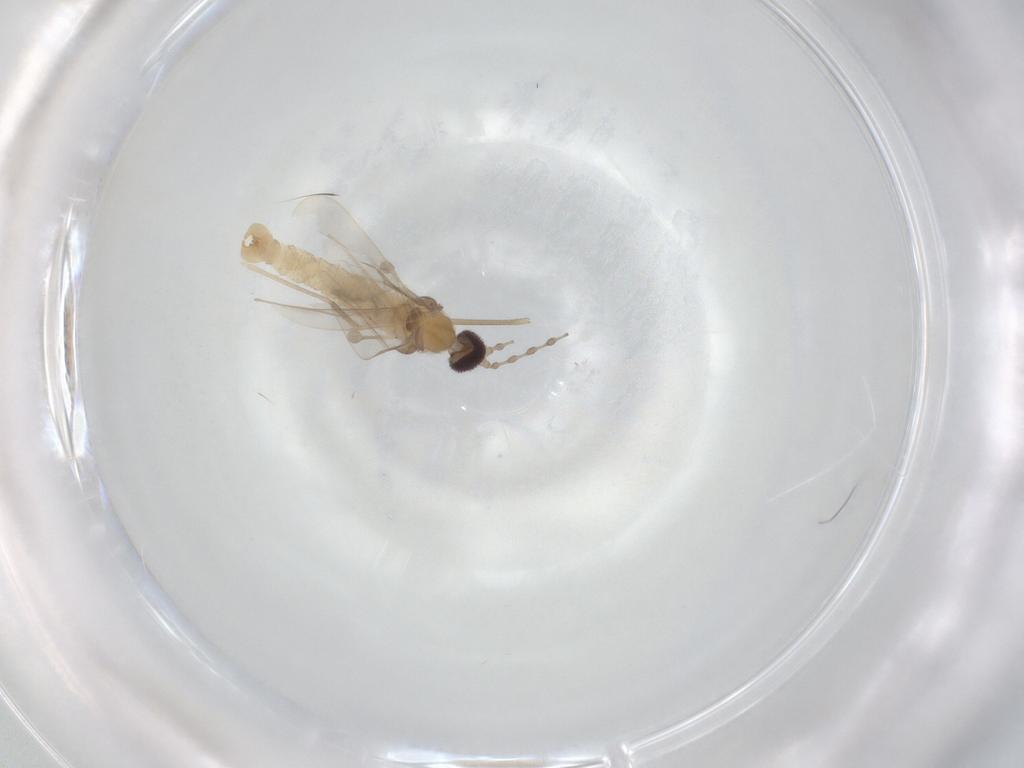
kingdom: Animalia
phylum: Arthropoda
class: Insecta
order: Diptera
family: Cecidomyiidae
